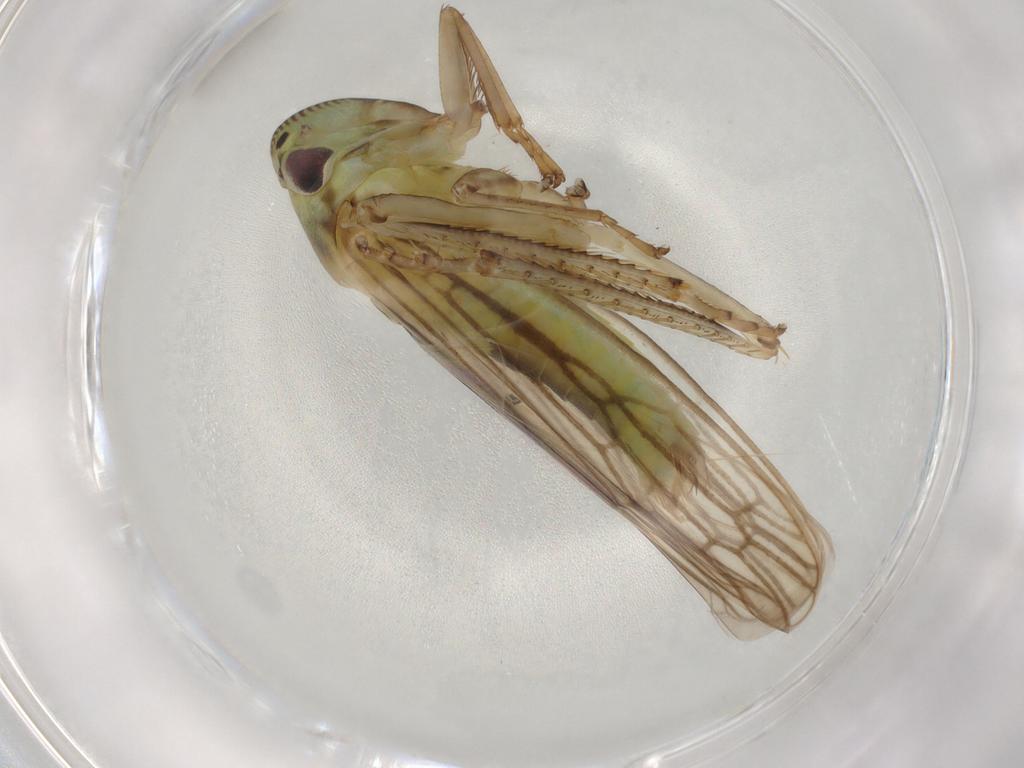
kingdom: Animalia
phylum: Arthropoda
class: Insecta
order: Hemiptera
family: Cicadellidae
